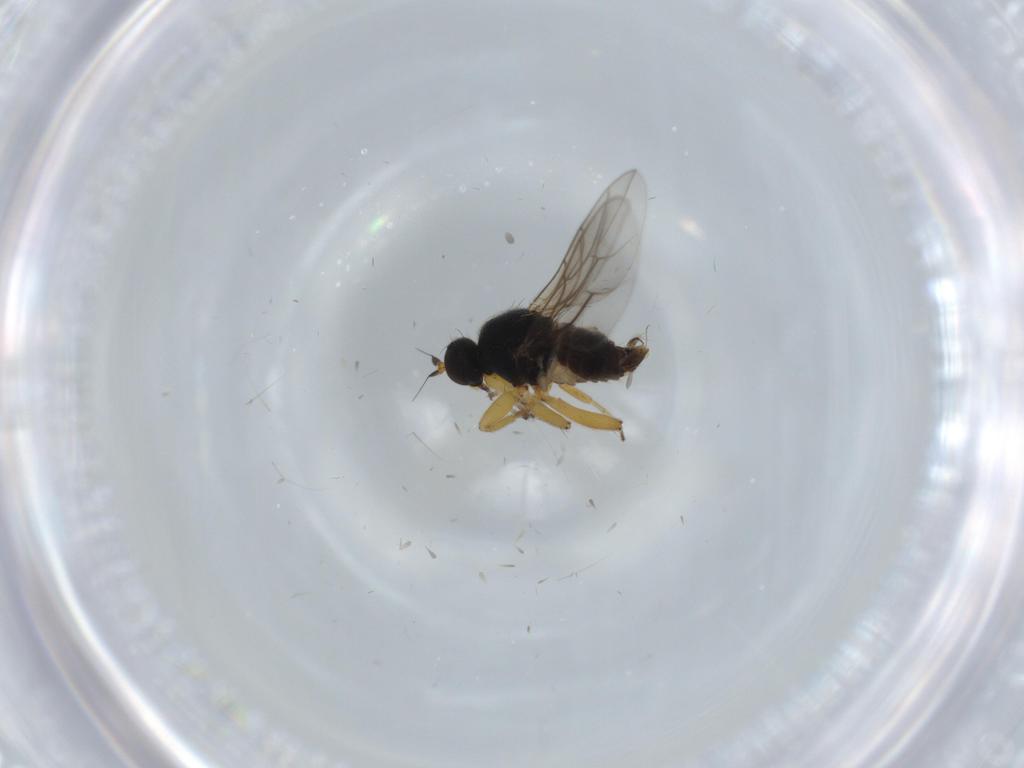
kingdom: Animalia
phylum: Arthropoda
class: Insecta
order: Diptera
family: Hybotidae
